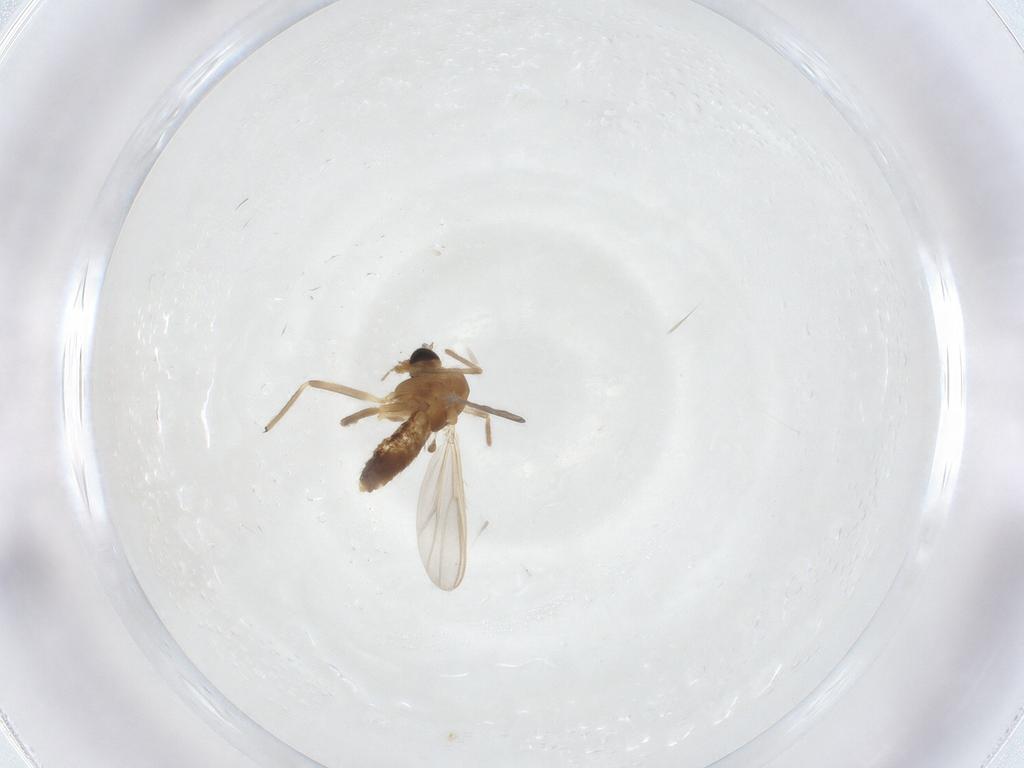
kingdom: Animalia
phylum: Arthropoda
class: Insecta
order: Diptera
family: Chironomidae
